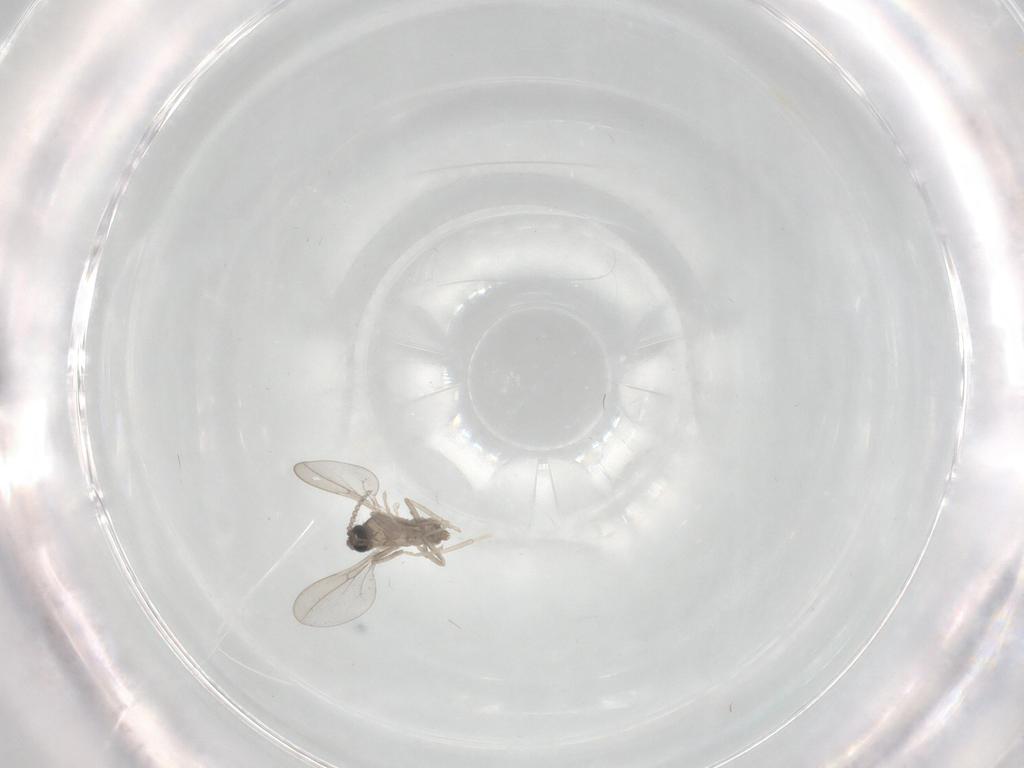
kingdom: Animalia
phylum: Arthropoda
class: Insecta
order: Diptera
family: Cecidomyiidae
